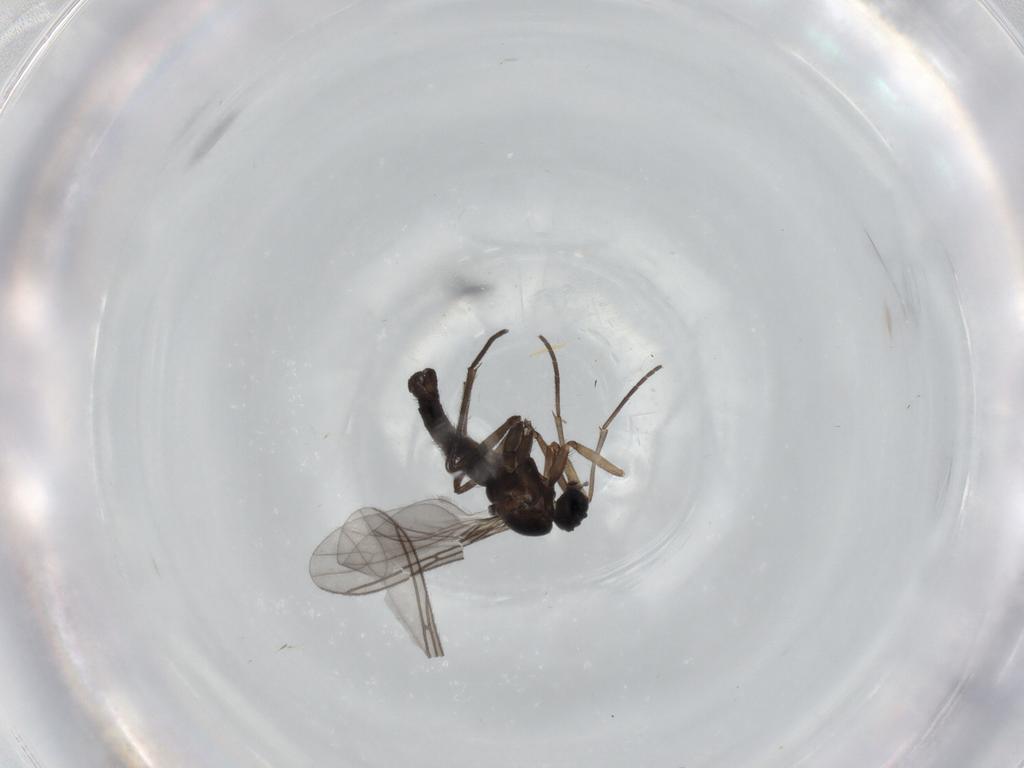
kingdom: Animalia
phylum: Arthropoda
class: Insecta
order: Diptera
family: Sciaridae
